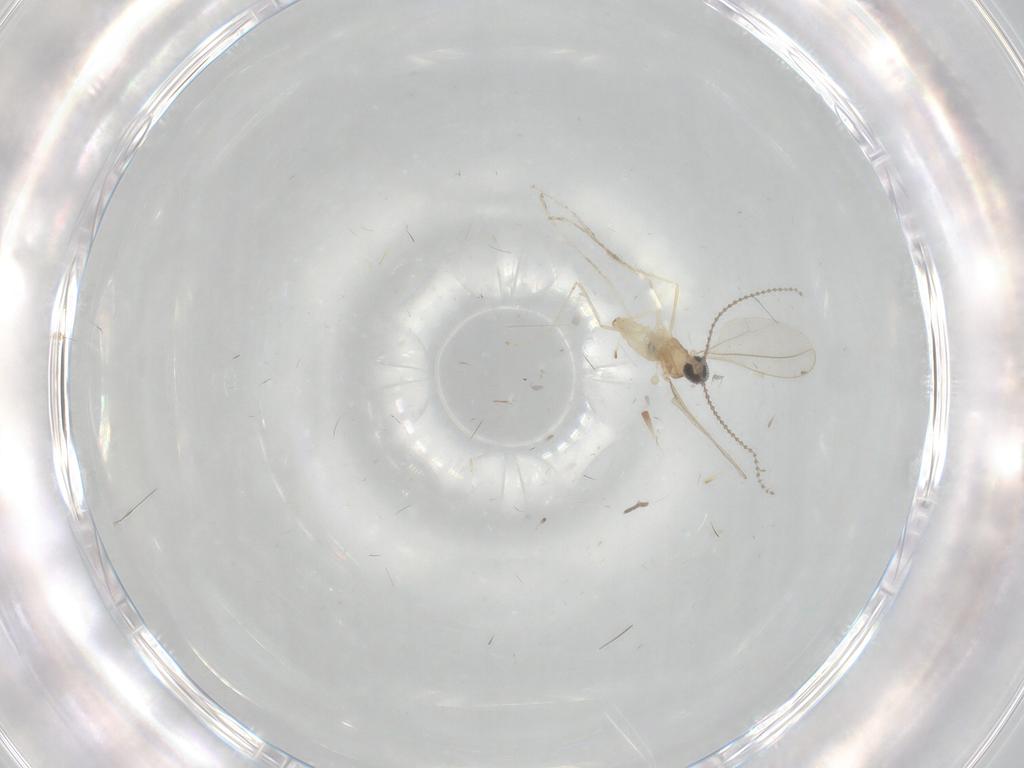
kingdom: Animalia
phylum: Arthropoda
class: Insecta
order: Diptera
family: Cecidomyiidae
